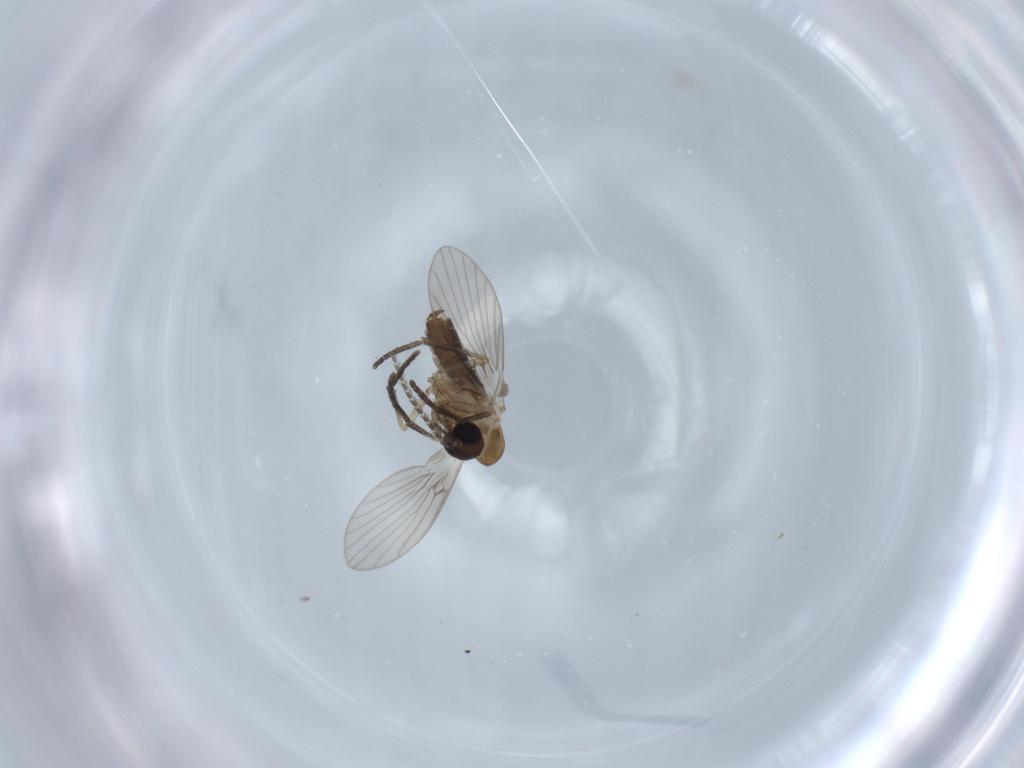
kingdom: Animalia
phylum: Arthropoda
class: Insecta
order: Diptera
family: Psychodidae
